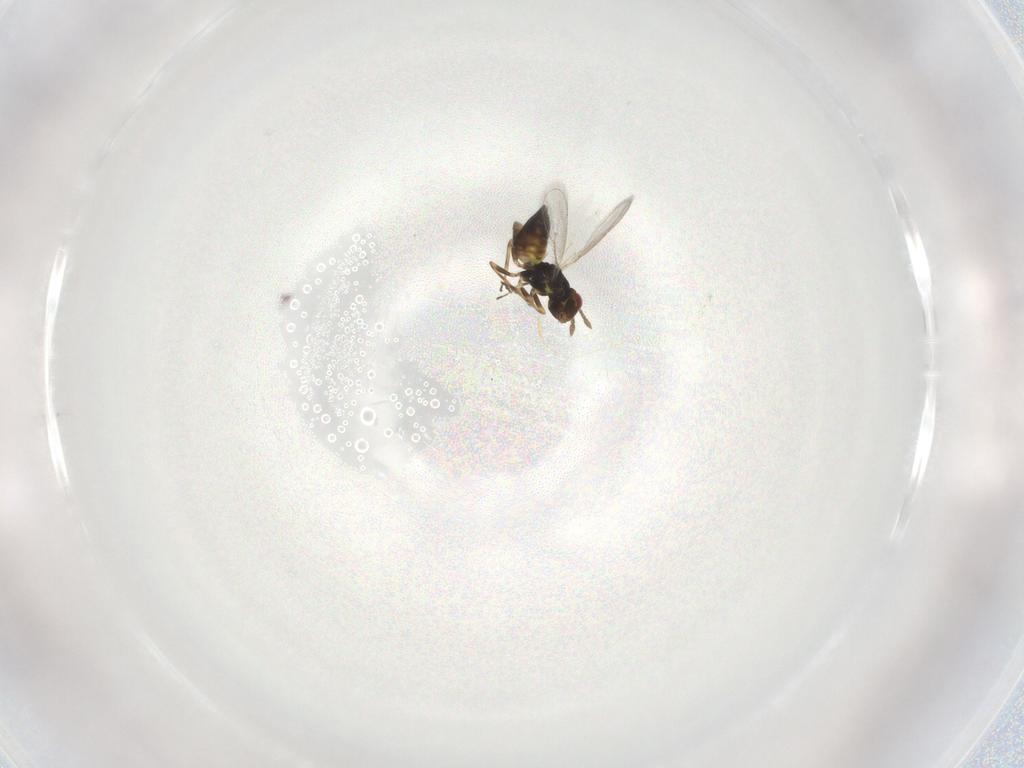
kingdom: Animalia
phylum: Arthropoda
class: Insecta
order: Hymenoptera
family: Eulophidae
